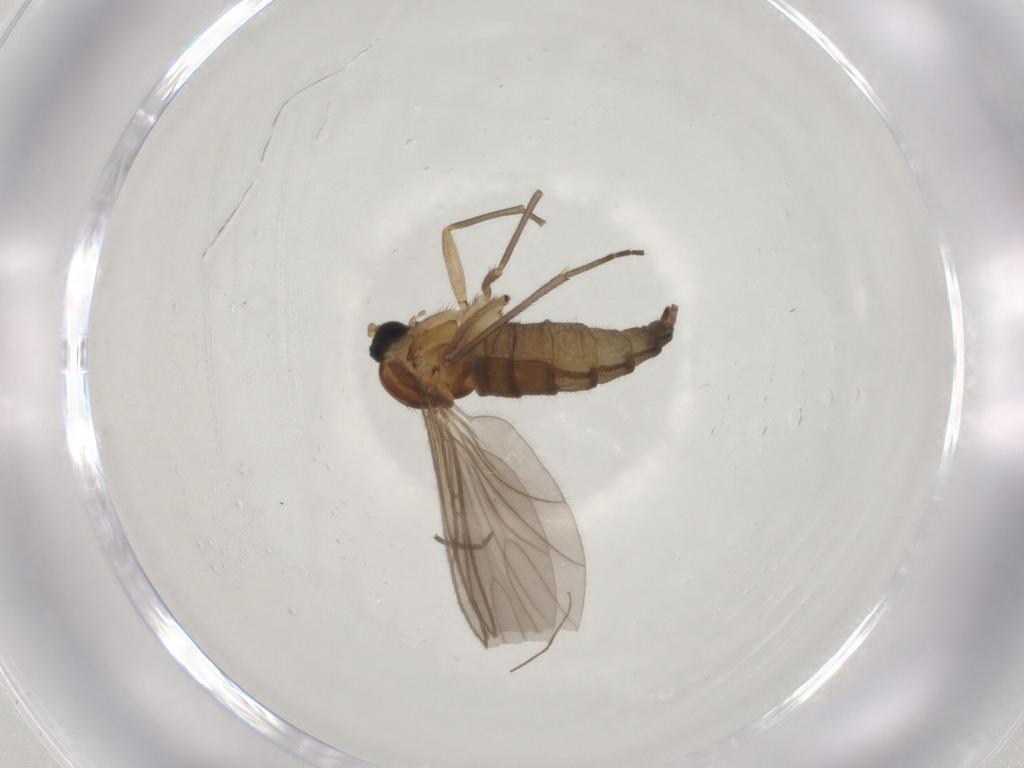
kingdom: Animalia
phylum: Arthropoda
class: Insecta
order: Diptera
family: Sciaridae
